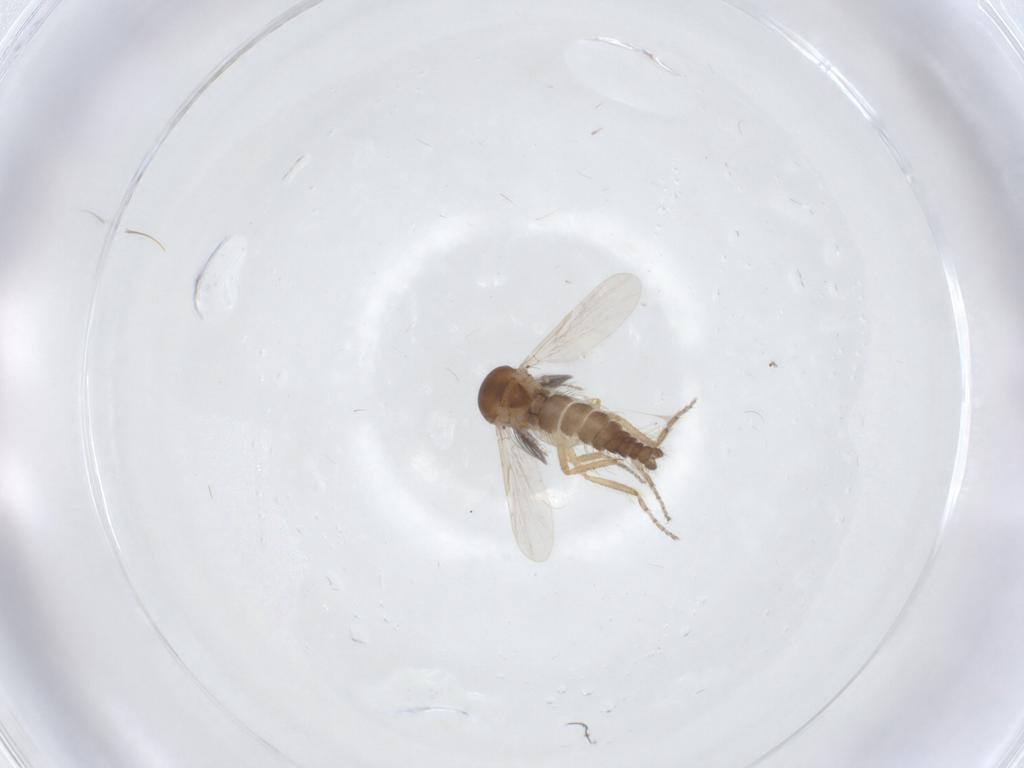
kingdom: Animalia
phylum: Arthropoda
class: Insecta
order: Diptera
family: Ceratopogonidae
